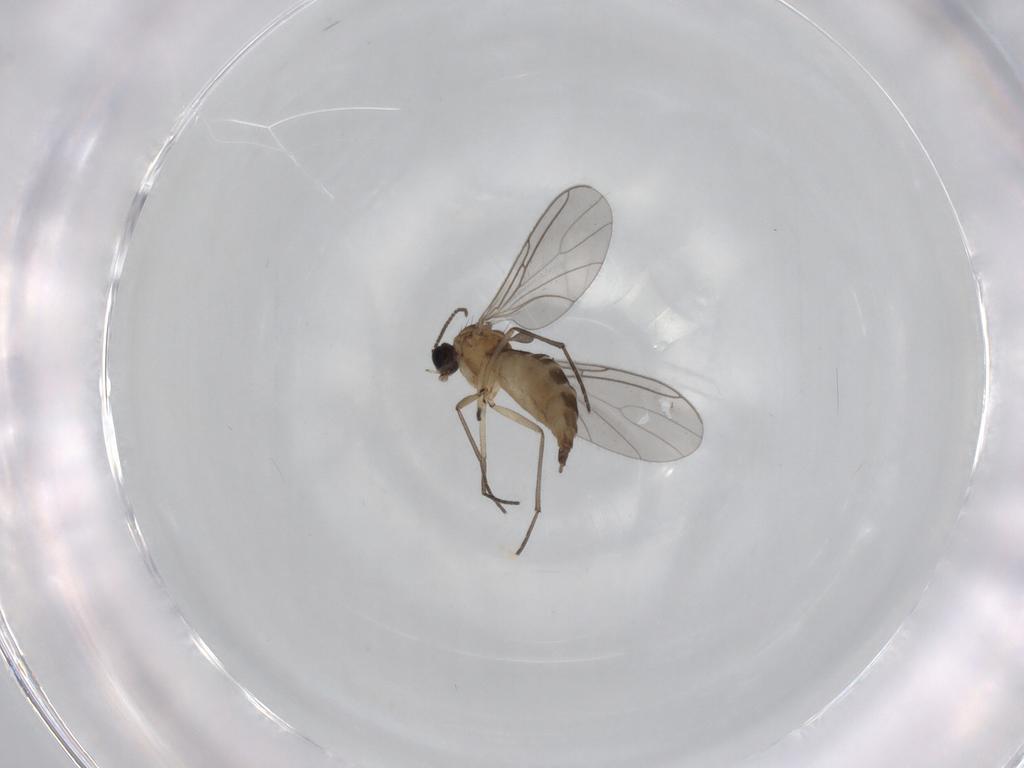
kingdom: Animalia
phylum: Arthropoda
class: Insecta
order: Diptera
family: Sciaridae
